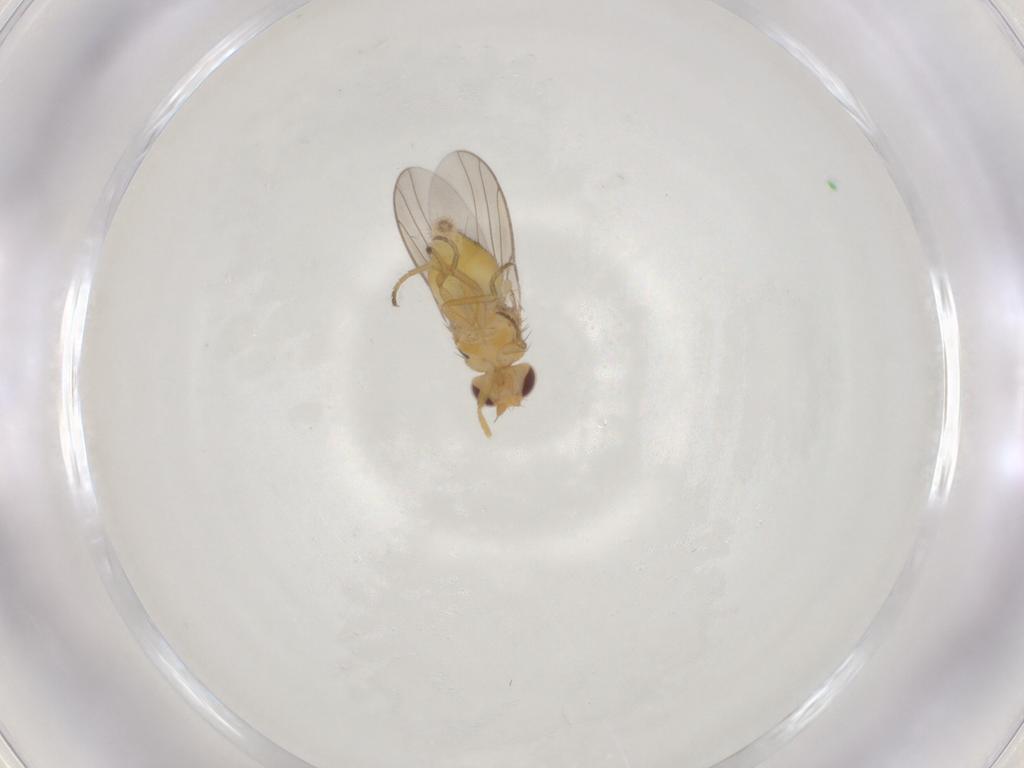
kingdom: Animalia
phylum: Arthropoda
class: Insecta
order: Diptera
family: Chloropidae
